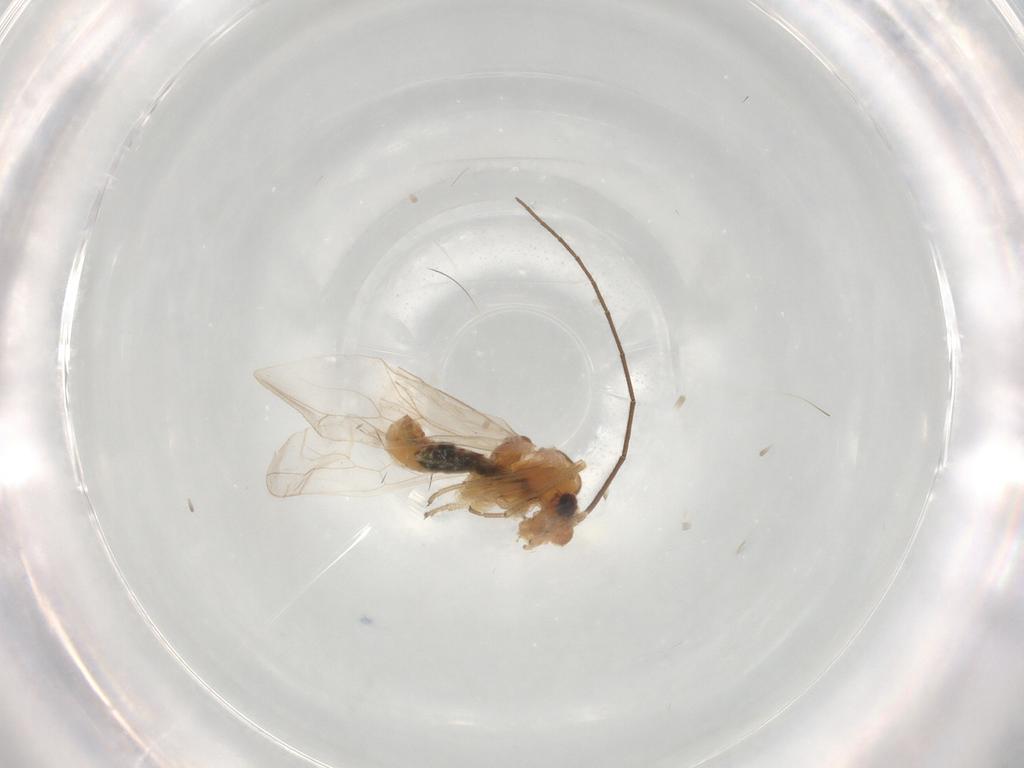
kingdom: Animalia
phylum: Arthropoda
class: Insecta
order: Psocodea
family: Caeciliusidae
